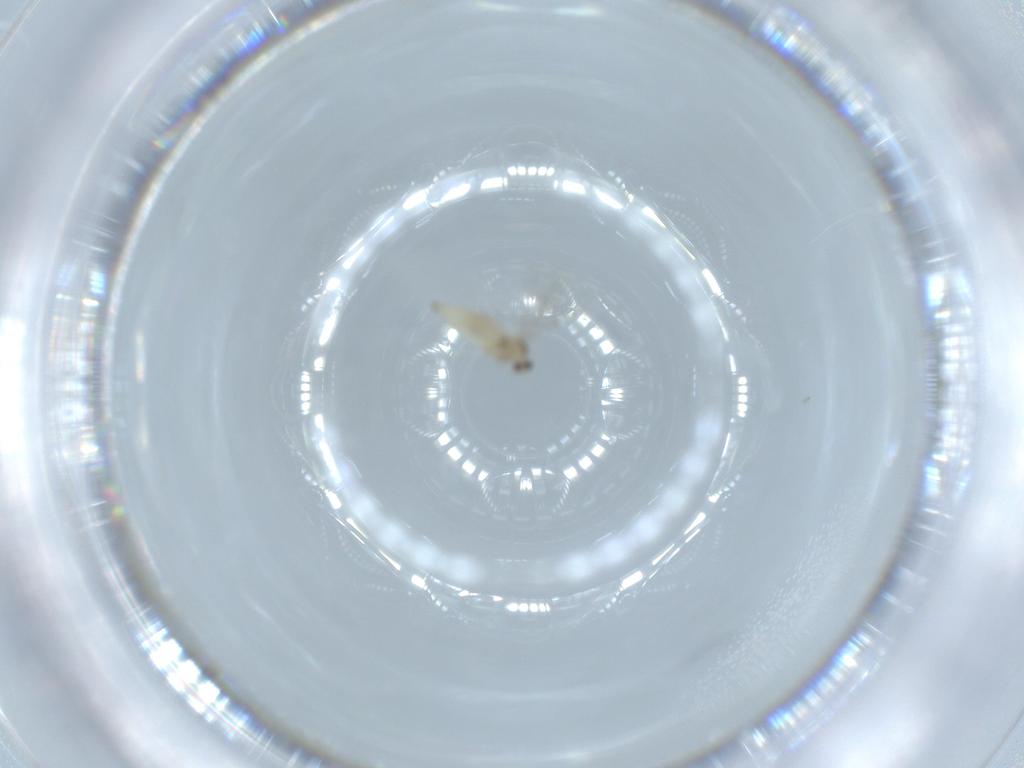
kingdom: Animalia
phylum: Arthropoda
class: Insecta
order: Diptera
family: Cecidomyiidae
